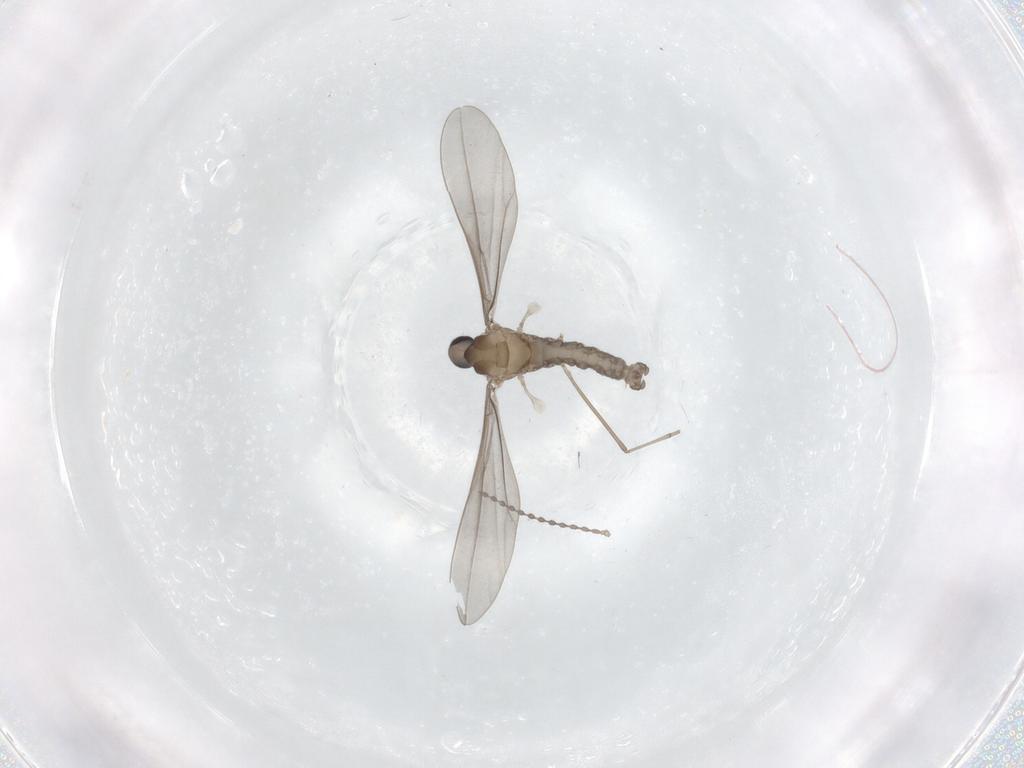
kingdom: Animalia
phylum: Arthropoda
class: Insecta
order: Diptera
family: Cecidomyiidae
